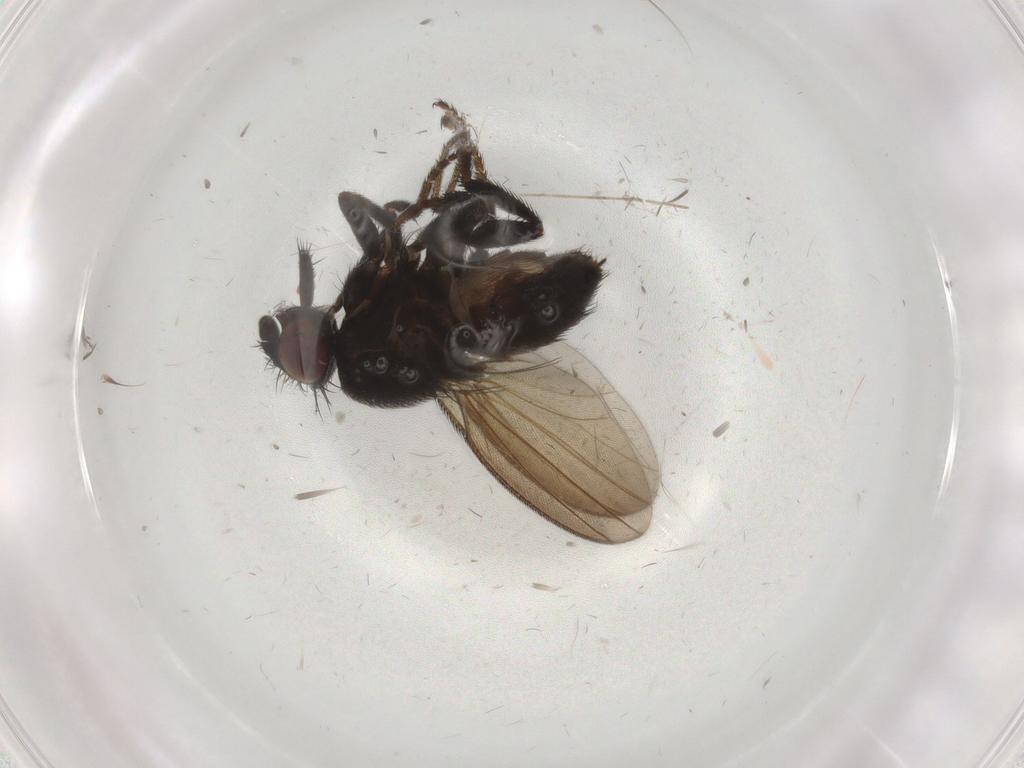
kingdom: Animalia
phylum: Arthropoda
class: Insecta
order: Diptera
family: Milichiidae
